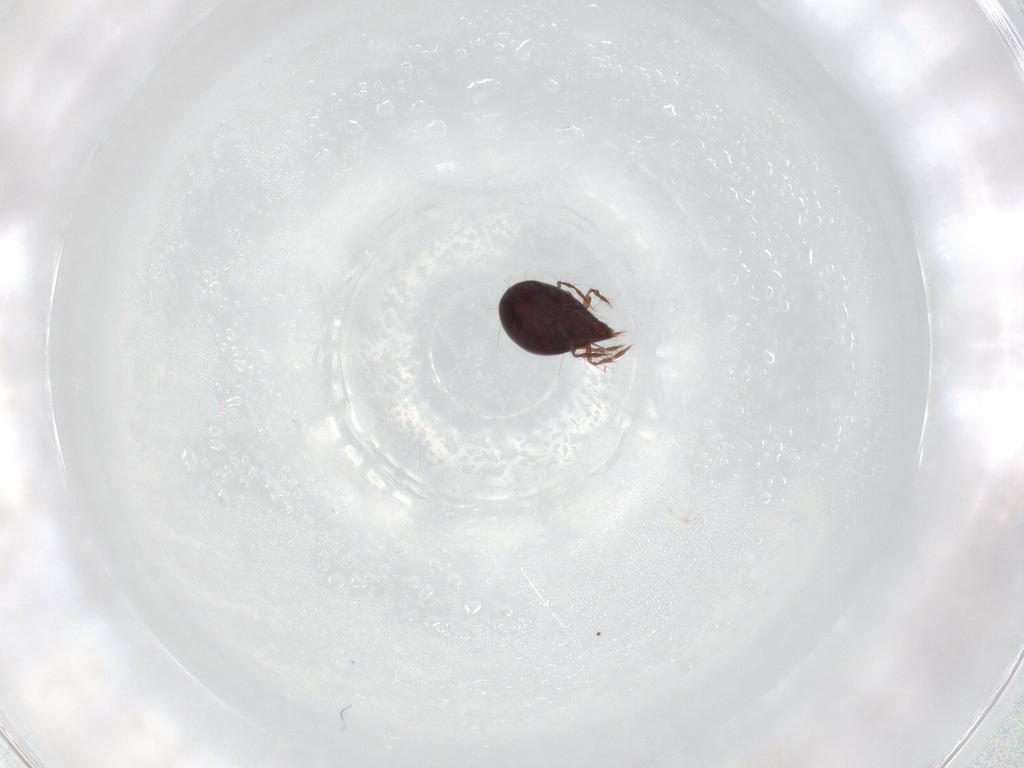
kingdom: Animalia
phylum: Arthropoda
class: Arachnida
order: Sarcoptiformes
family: Ceratoppiidae
